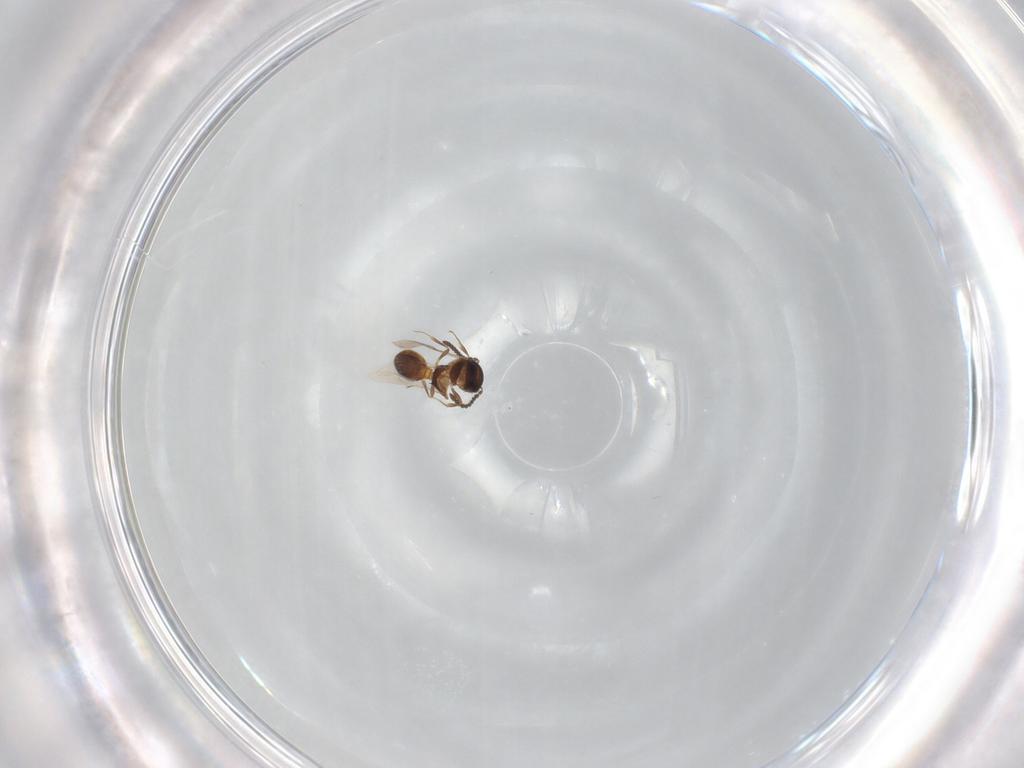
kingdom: Animalia
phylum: Arthropoda
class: Insecta
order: Hymenoptera
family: Scelionidae
